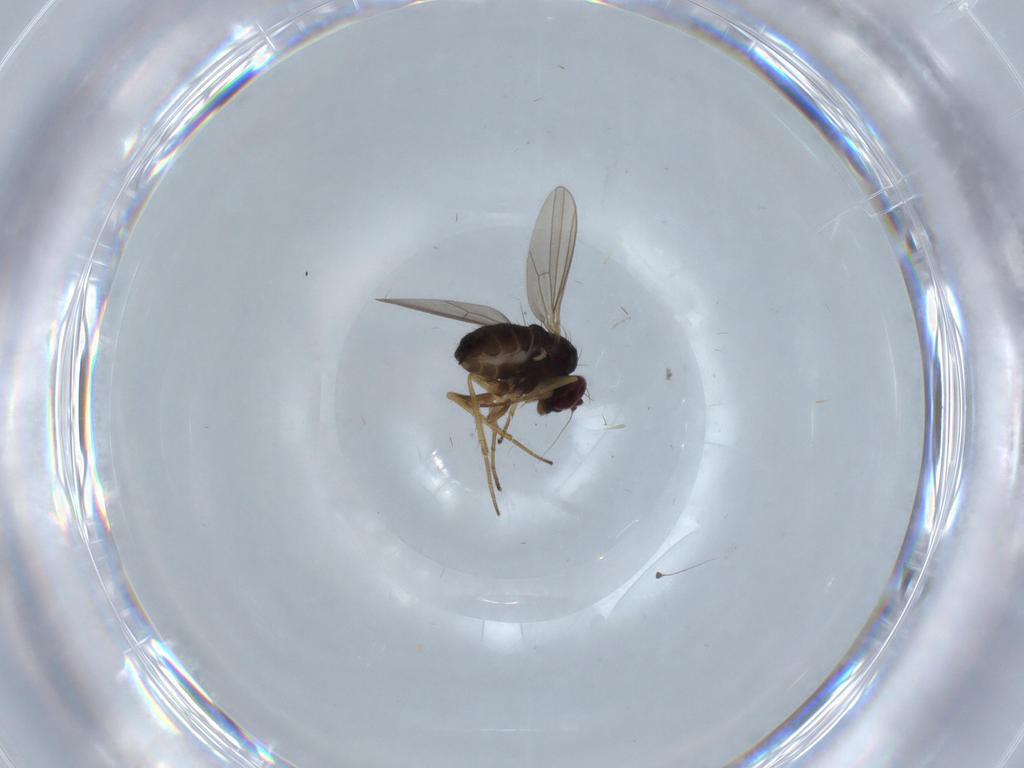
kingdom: Animalia
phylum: Arthropoda
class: Insecta
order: Diptera
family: Dolichopodidae
